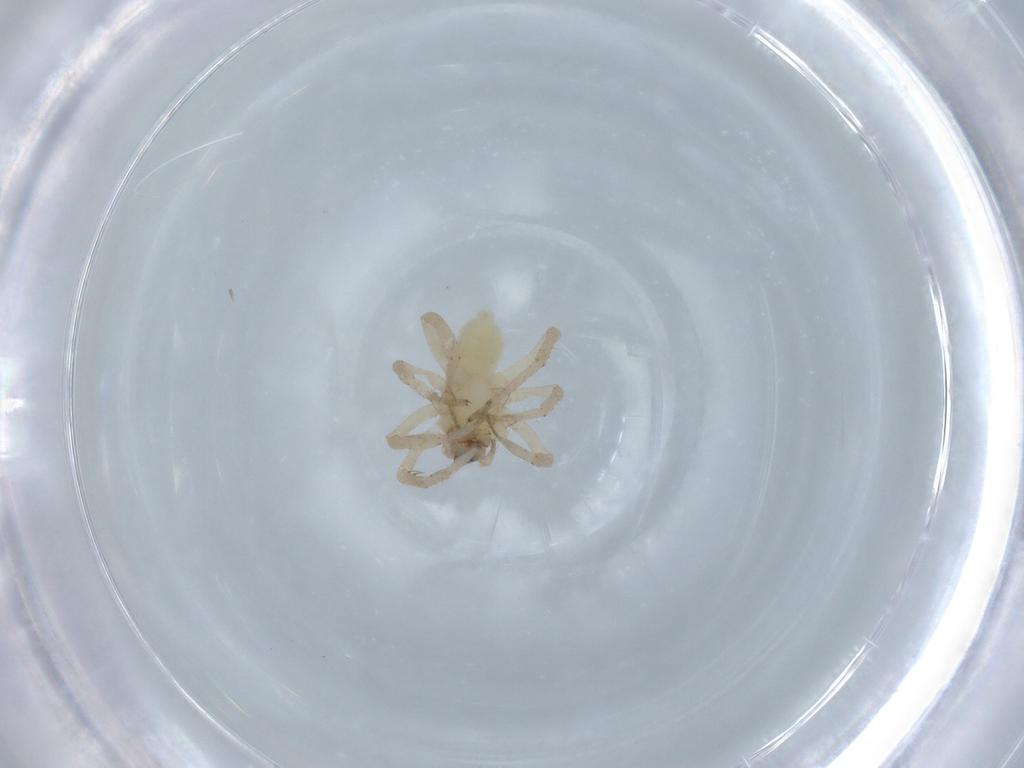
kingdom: Animalia
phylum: Arthropoda
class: Arachnida
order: Araneae
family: Anyphaenidae
